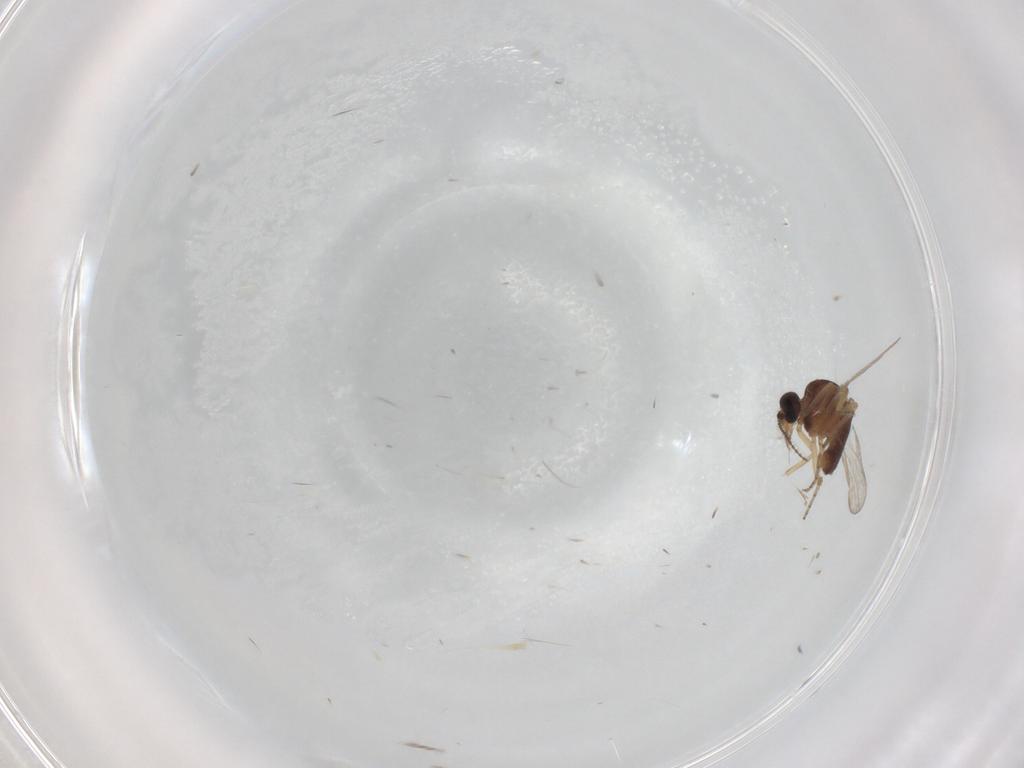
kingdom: Animalia
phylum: Arthropoda
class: Insecta
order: Diptera
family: Ceratopogonidae
